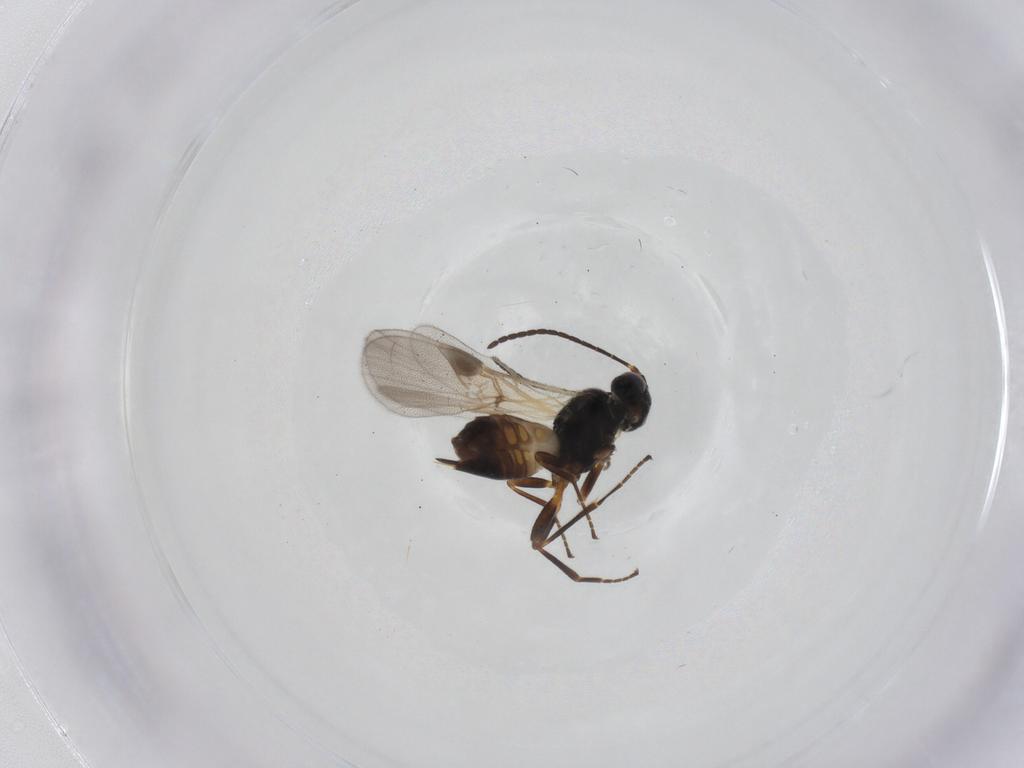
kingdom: Animalia
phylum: Arthropoda
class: Insecta
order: Hymenoptera
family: Braconidae
